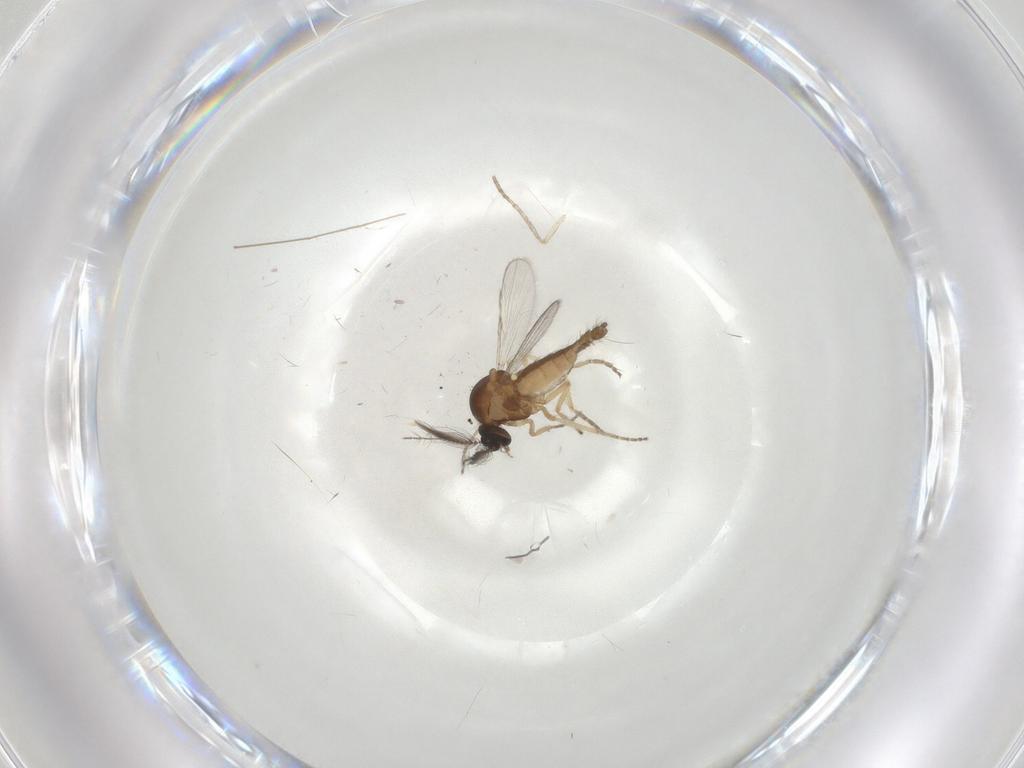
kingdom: Animalia
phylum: Arthropoda
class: Insecta
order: Diptera
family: Ceratopogonidae
